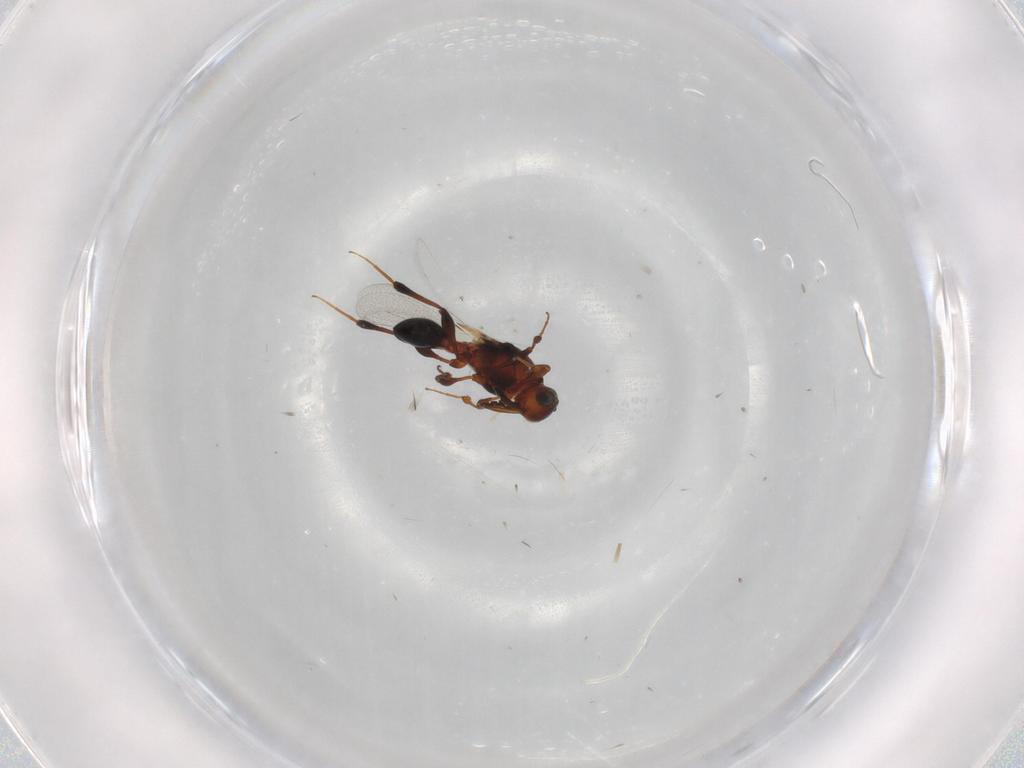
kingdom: Animalia
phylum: Arthropoda
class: Insecta
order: Hymenoptera
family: Platygastridae
